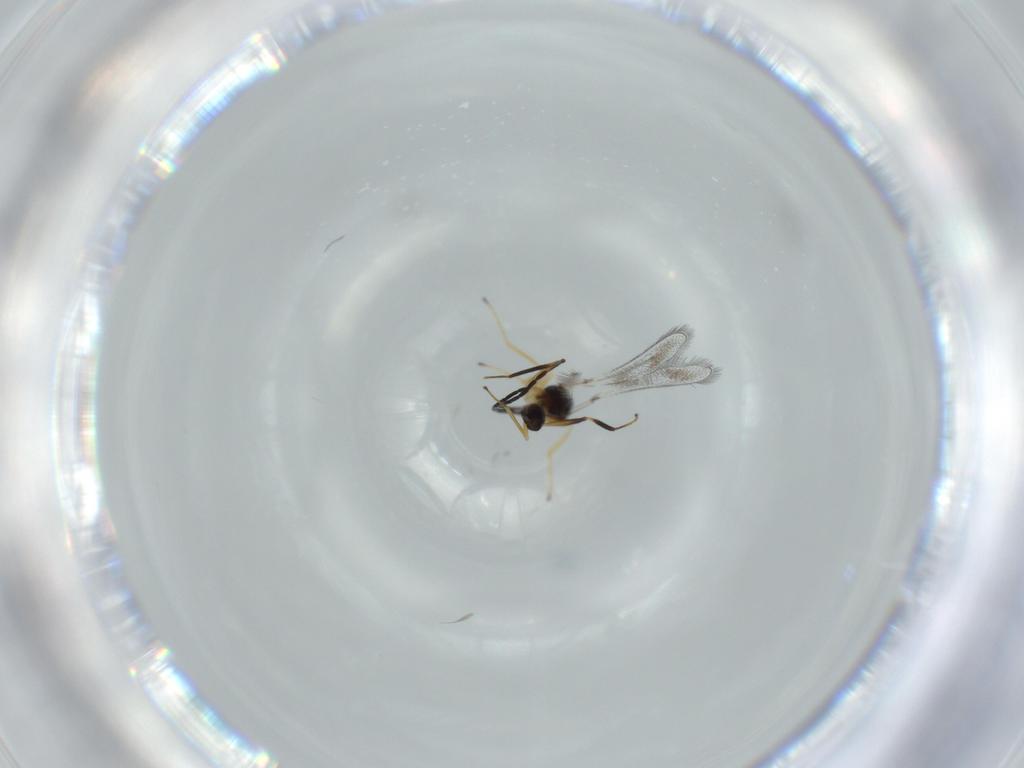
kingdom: Animalia
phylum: Arthropoda
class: Insecta
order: Hymenoptera
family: Mymaridae
